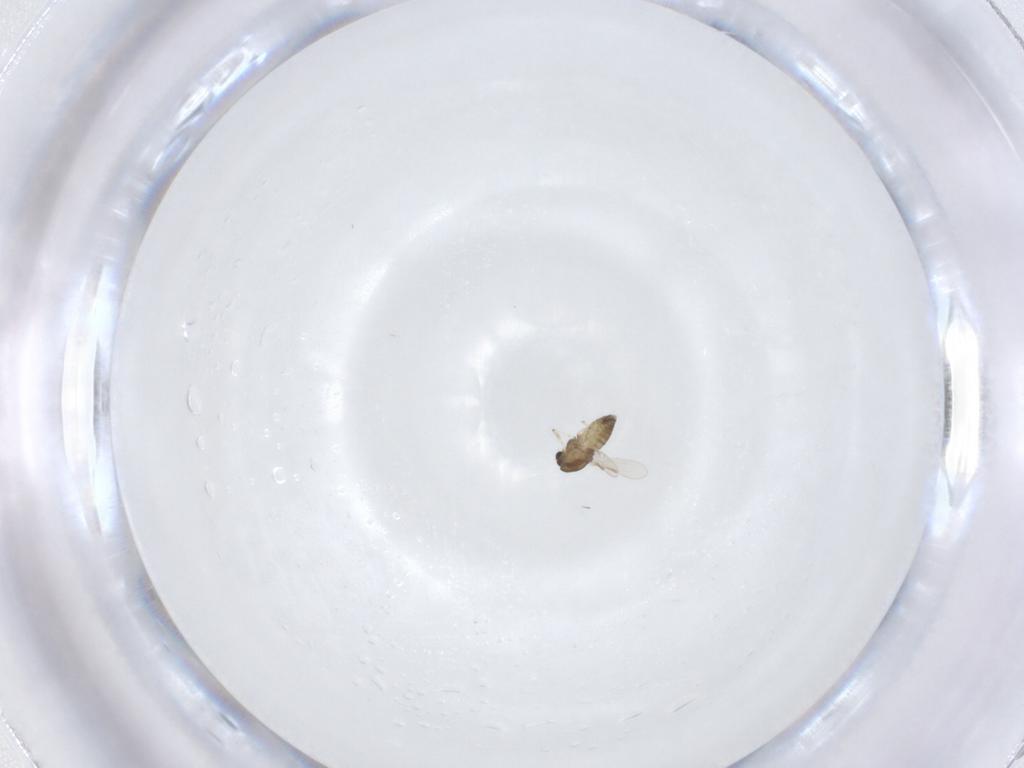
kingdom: Animalia
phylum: Arthropoda
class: Insecta
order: Diptera
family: Chironomidae
